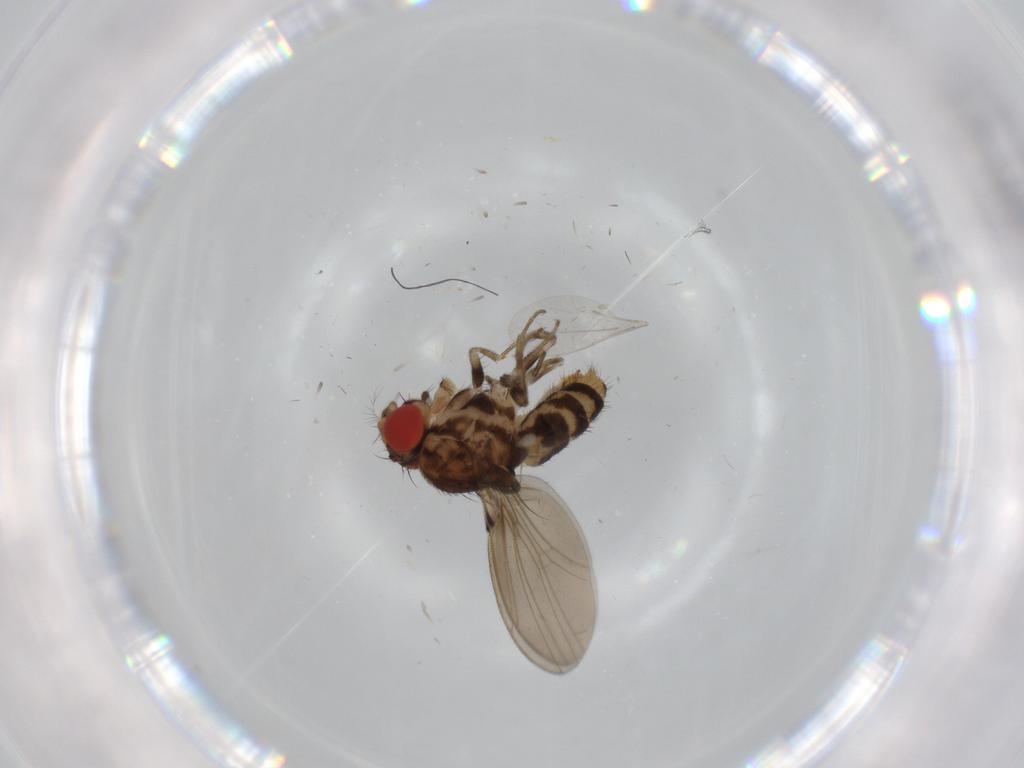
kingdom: Animalia
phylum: Arthropoda
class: Insecta
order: Diptera
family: Drosophilidae
